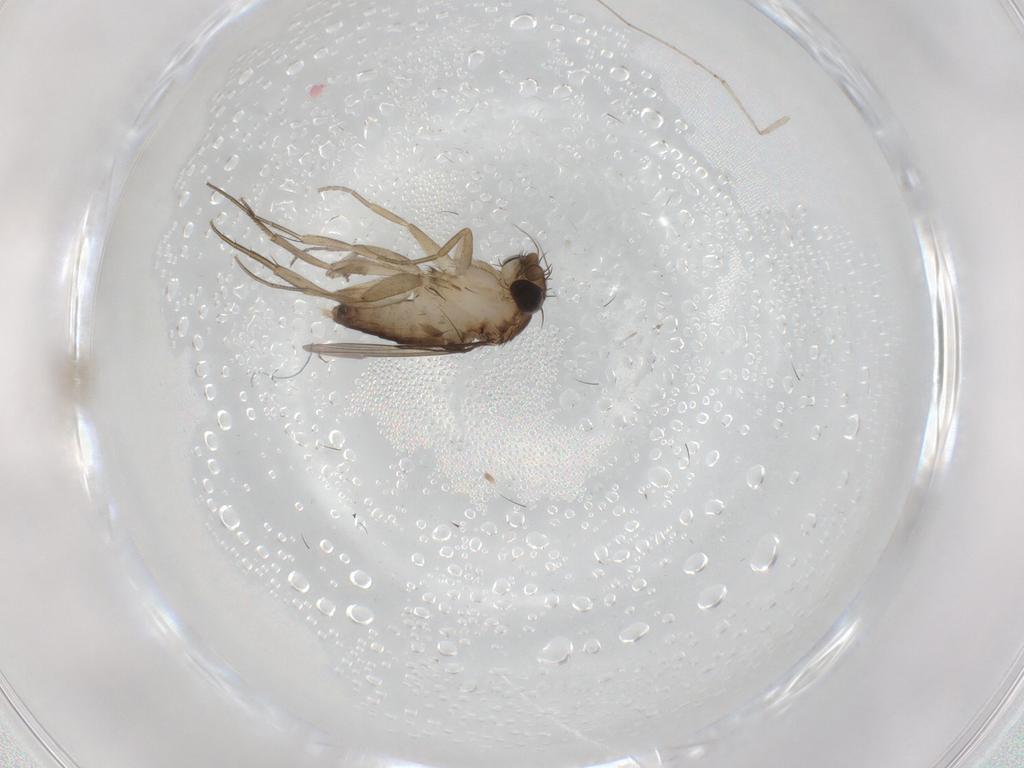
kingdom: Animalia
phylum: Arthropoda
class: Insecta
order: Diptera
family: Phoridae
